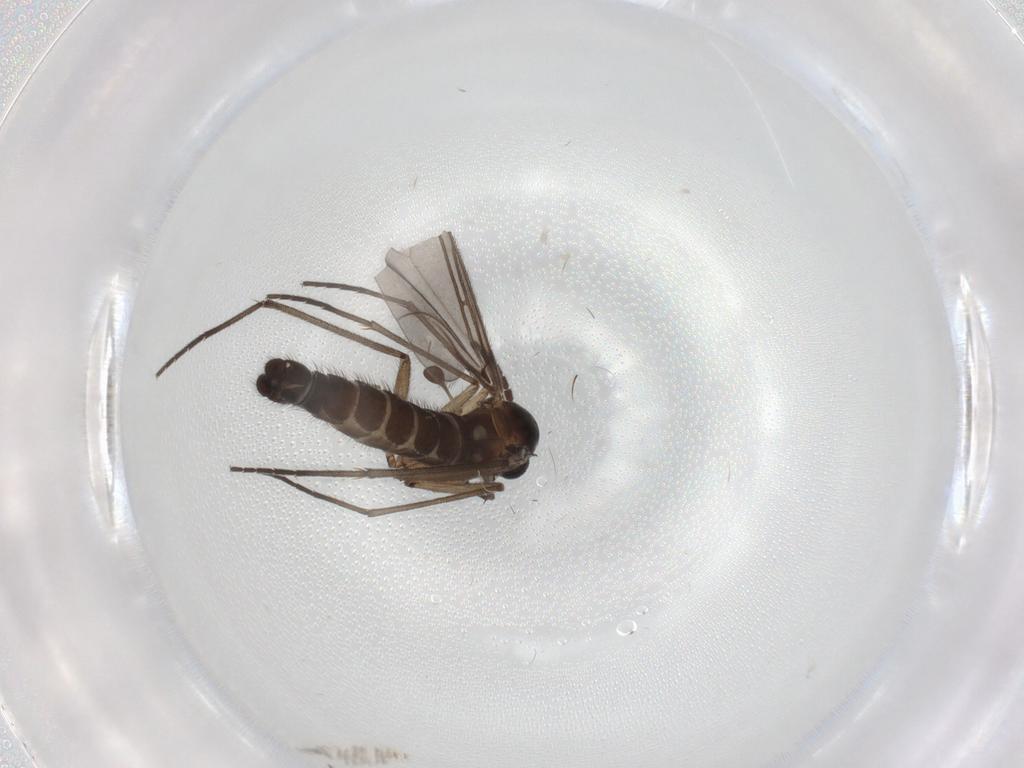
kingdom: Animalia
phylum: Arthropoda
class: Insecta
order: Diptera
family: Sciaridae
